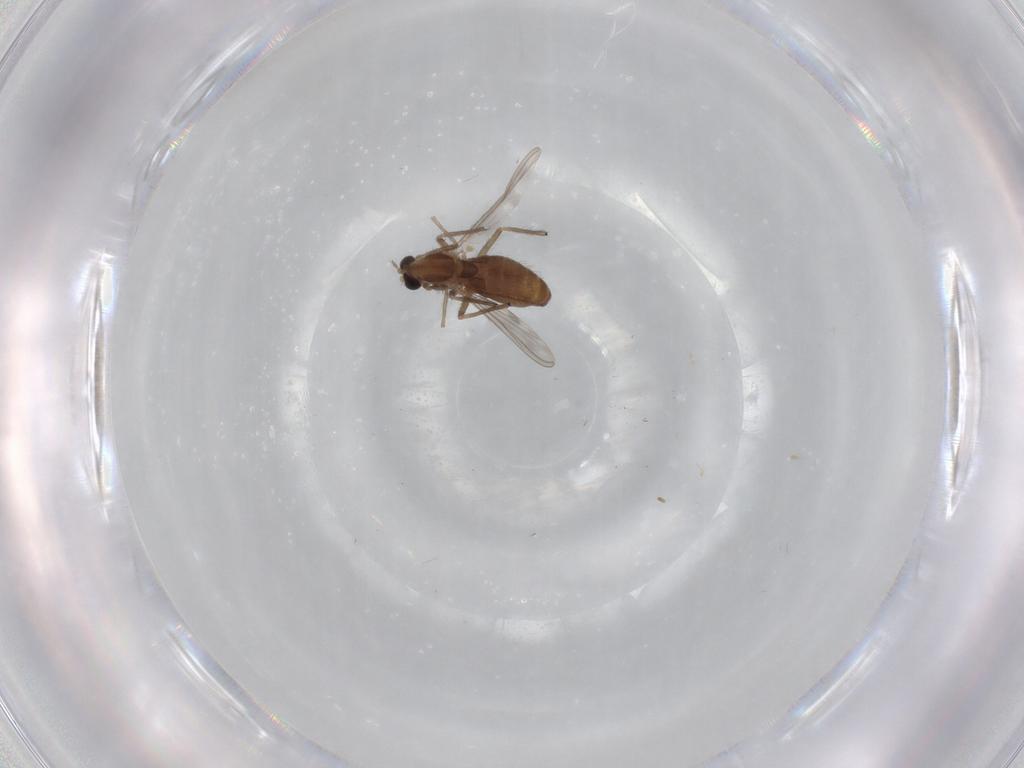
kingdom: Animalia
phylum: Arthropoda
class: Insecta
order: Diptera
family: Chironomidae
